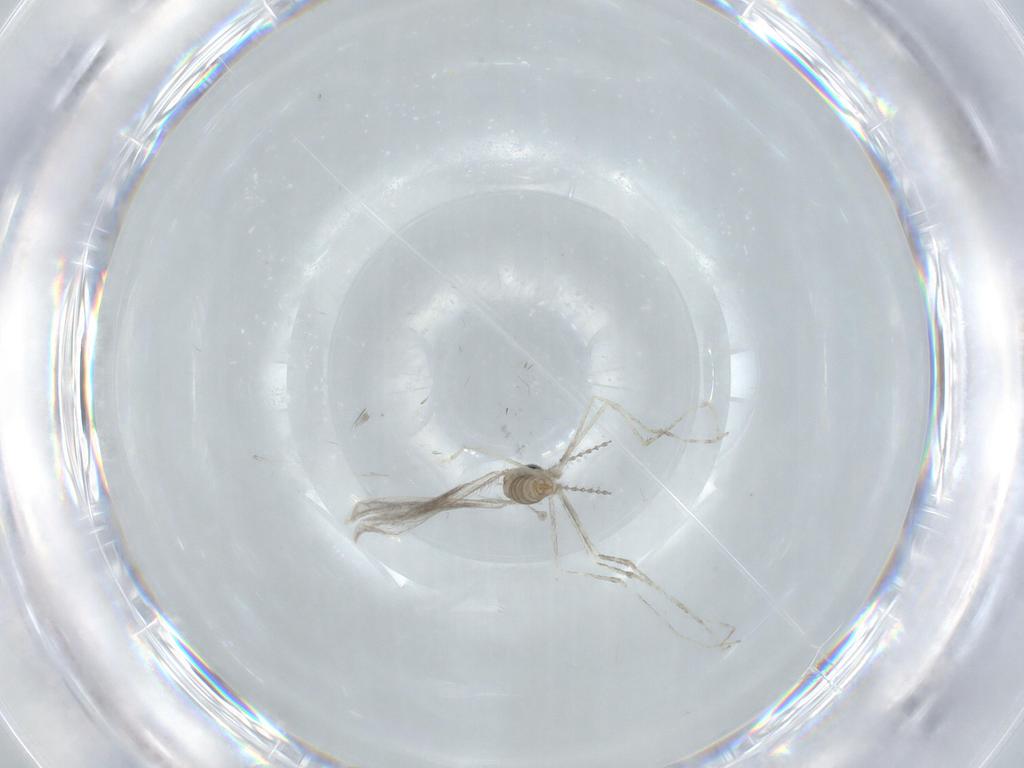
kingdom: Animalia
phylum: Arthropoda
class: Insecta
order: Diptera
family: Cecidomyiidae
